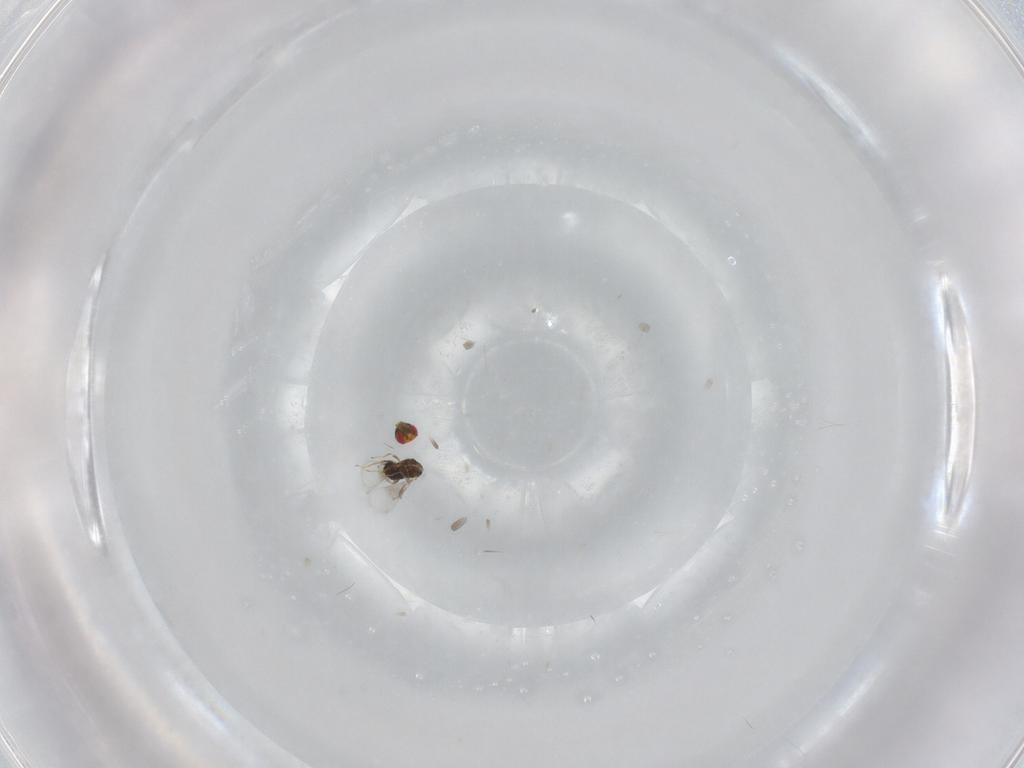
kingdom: Animalia
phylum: Arthropoda
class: Insecta
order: Hymenoptera
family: Trichogrammatidae
